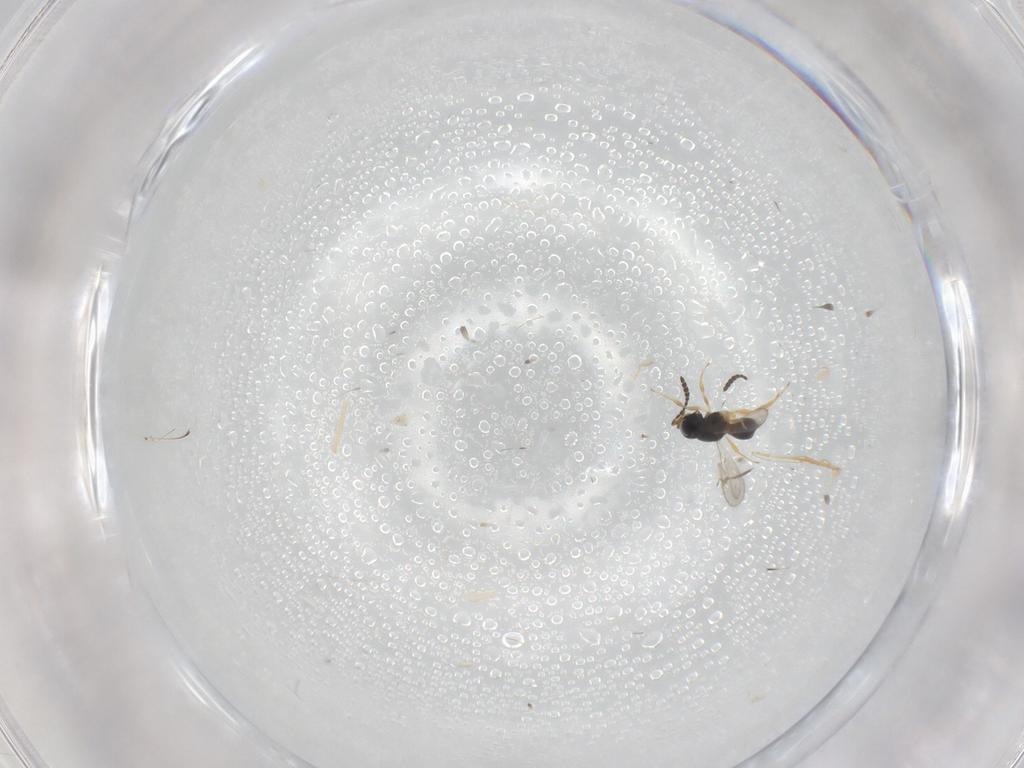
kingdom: Animalia
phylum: Arthropoda
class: Insecta
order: Hymenoptera
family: Scelionidae
